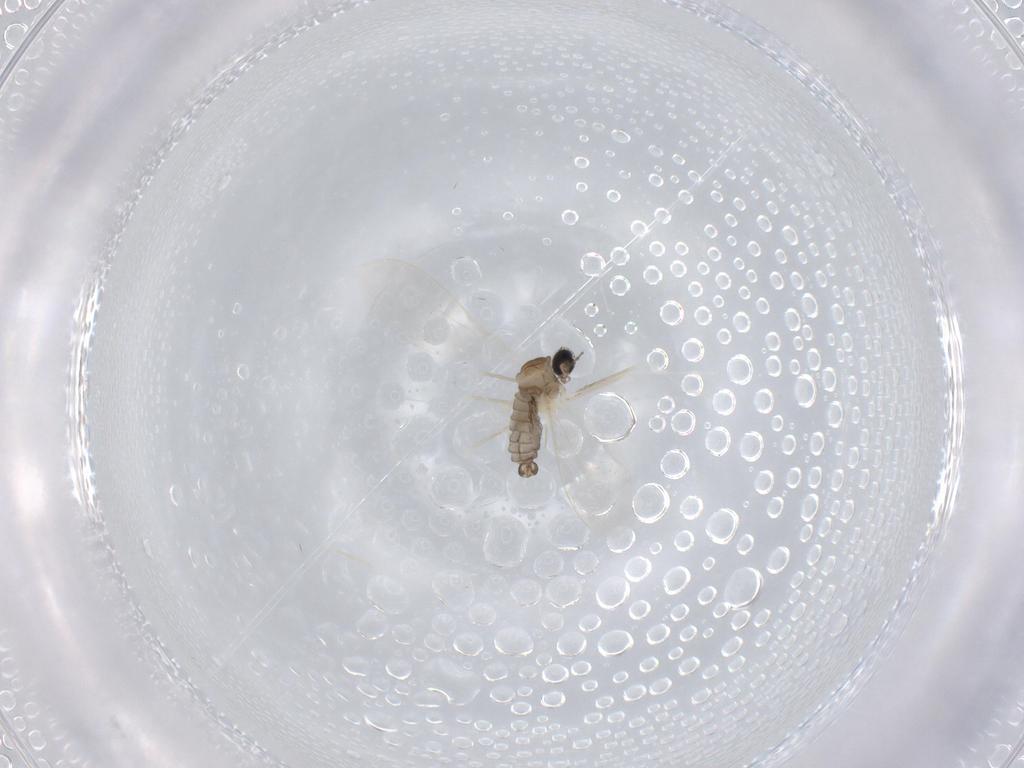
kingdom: Animalia
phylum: Arthropoda
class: Insecta
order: Diptera
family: Cecidomyiidae
